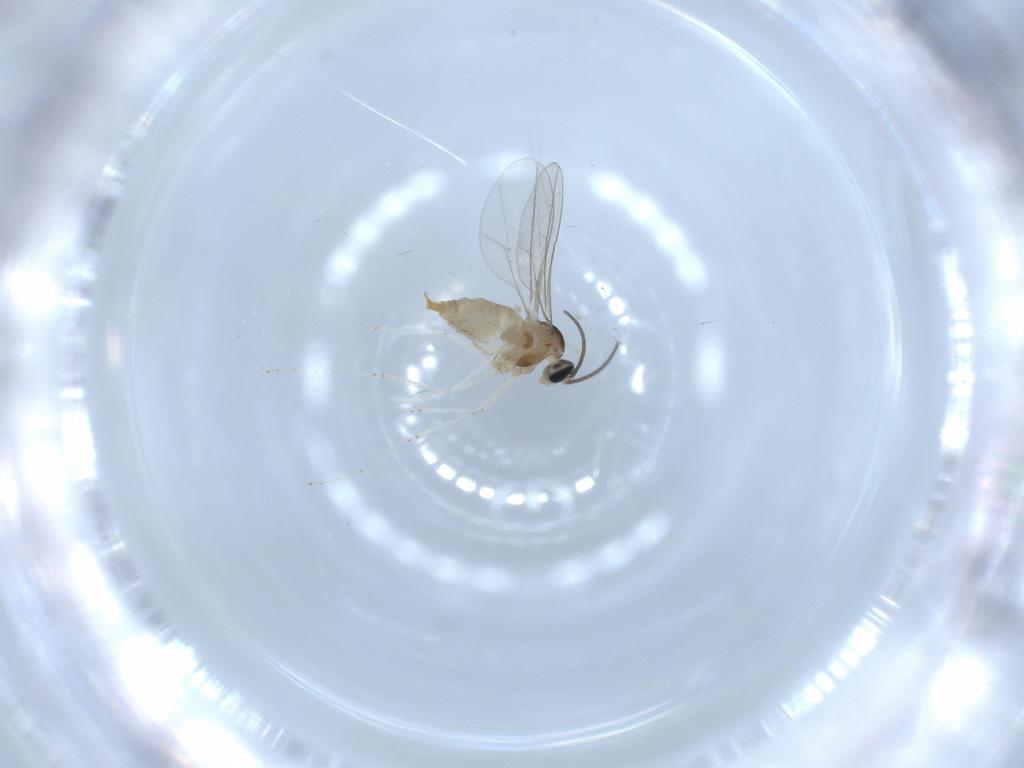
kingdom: Animalia
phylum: Arthropoda
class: Insecta
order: Diptera
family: Cecidomyiidae
